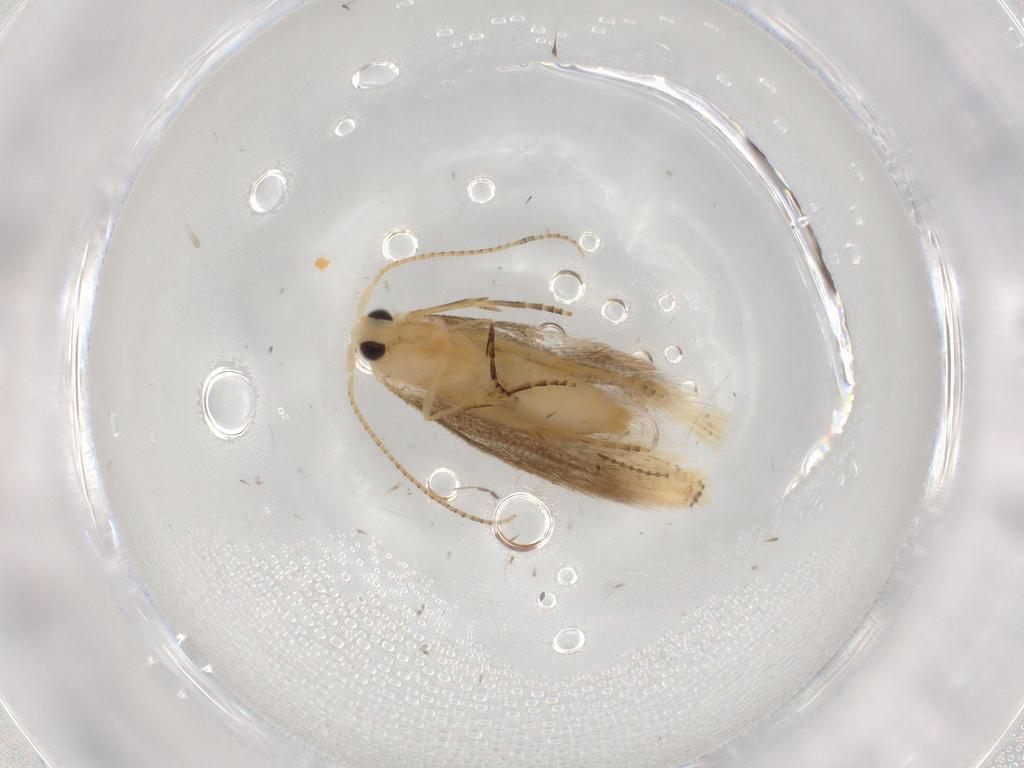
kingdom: Animalia
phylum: Arthropoda
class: Insecta
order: Lepidoptera
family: Bucculatricidae
